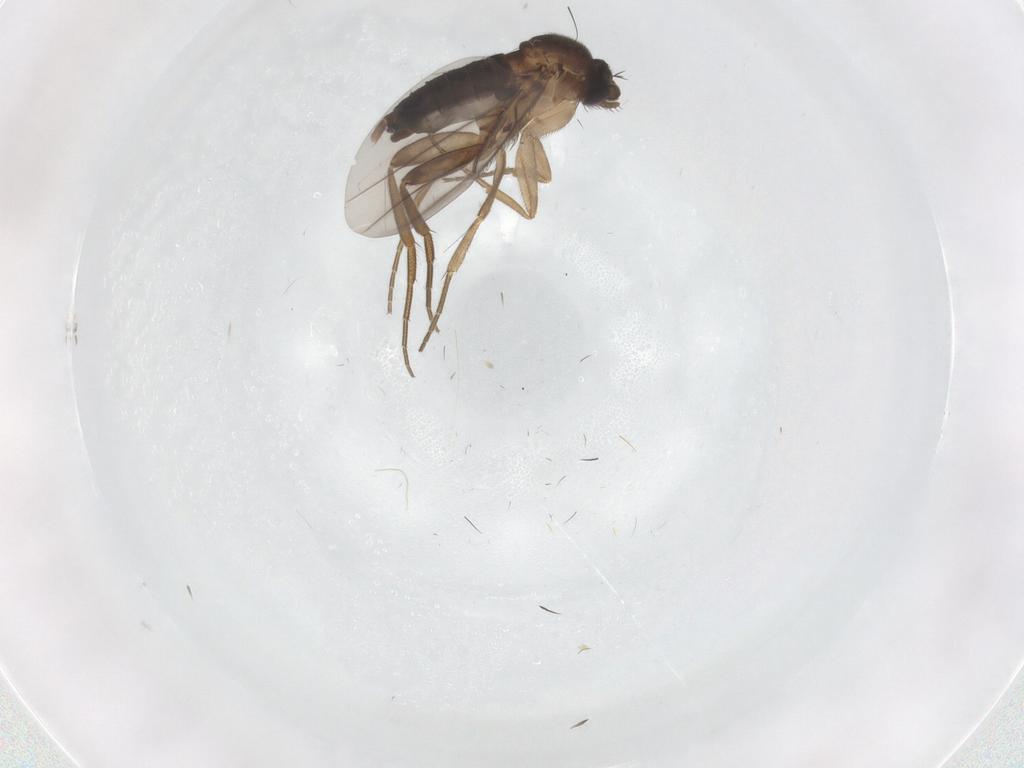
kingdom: Animalia
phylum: Arthropoda
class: Insecta
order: Diptera
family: Phoridae
